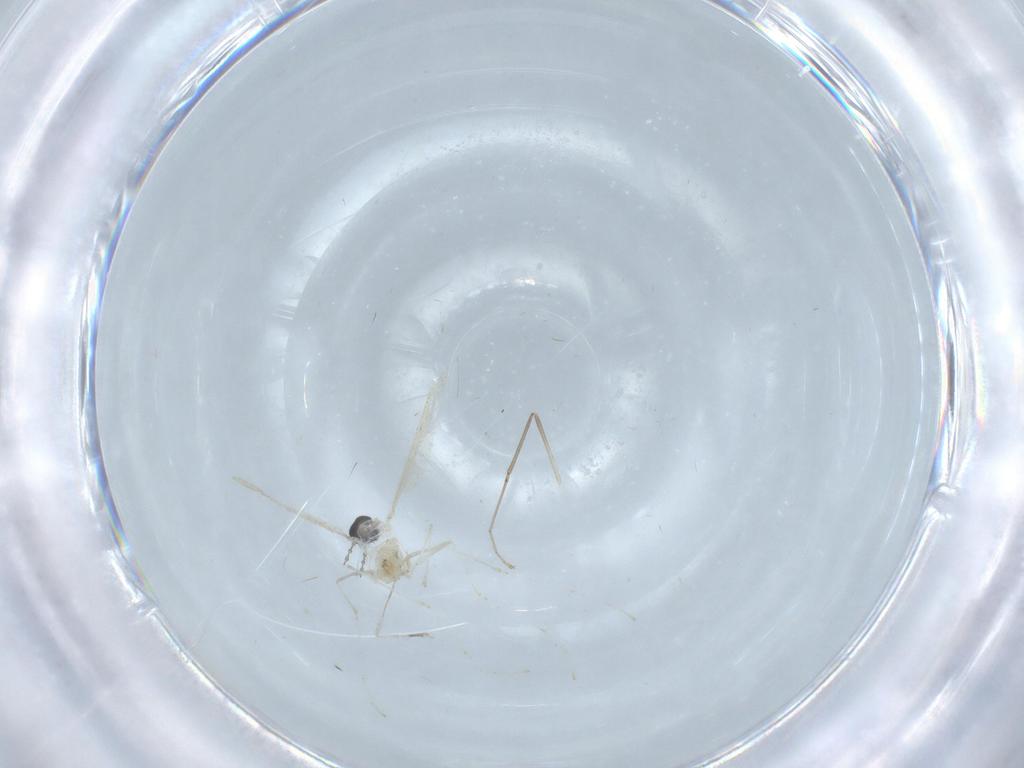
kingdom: Animalia
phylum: Arthropoda
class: Insecta
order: Diptera
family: Cecidomyiidae
